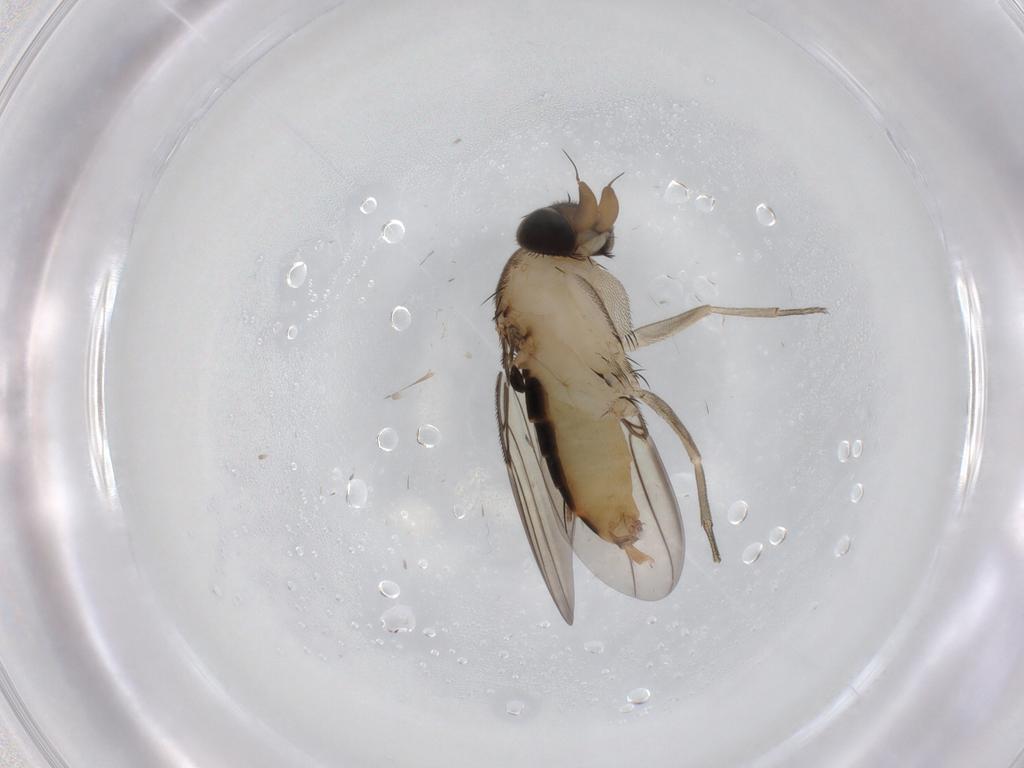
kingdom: Animalia
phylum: Arthropoda
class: Insecta
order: Diptera
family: Phoridae
